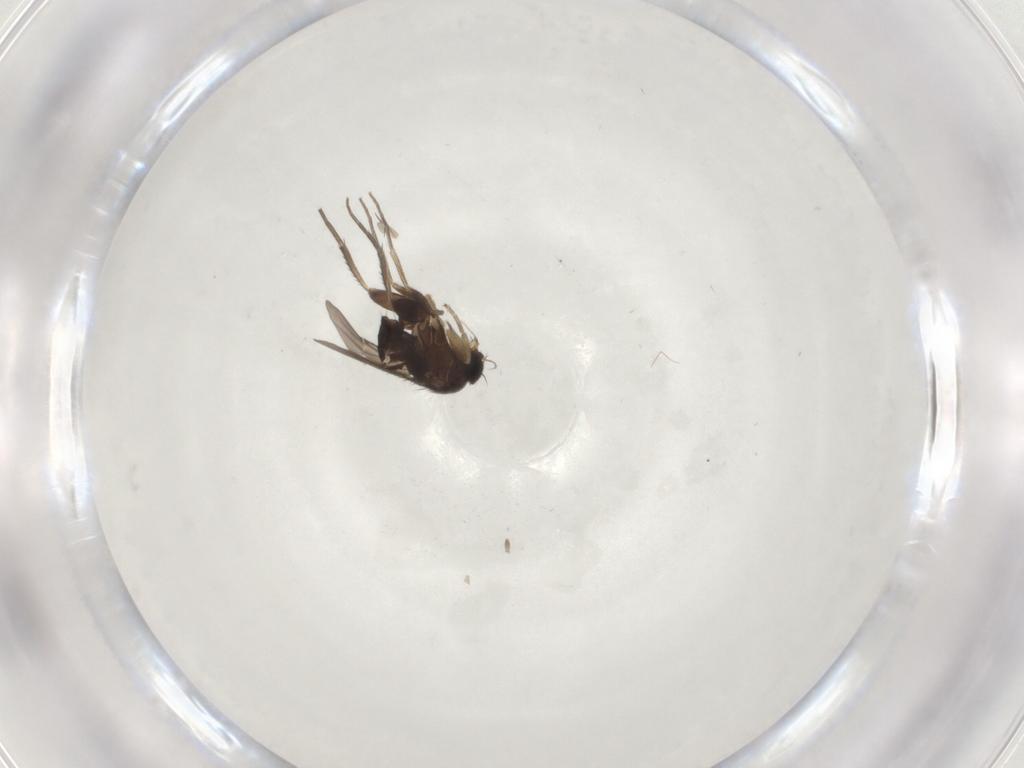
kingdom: Animalia
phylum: Arthropoda
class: Insecta
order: Diptera
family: Phoridae
